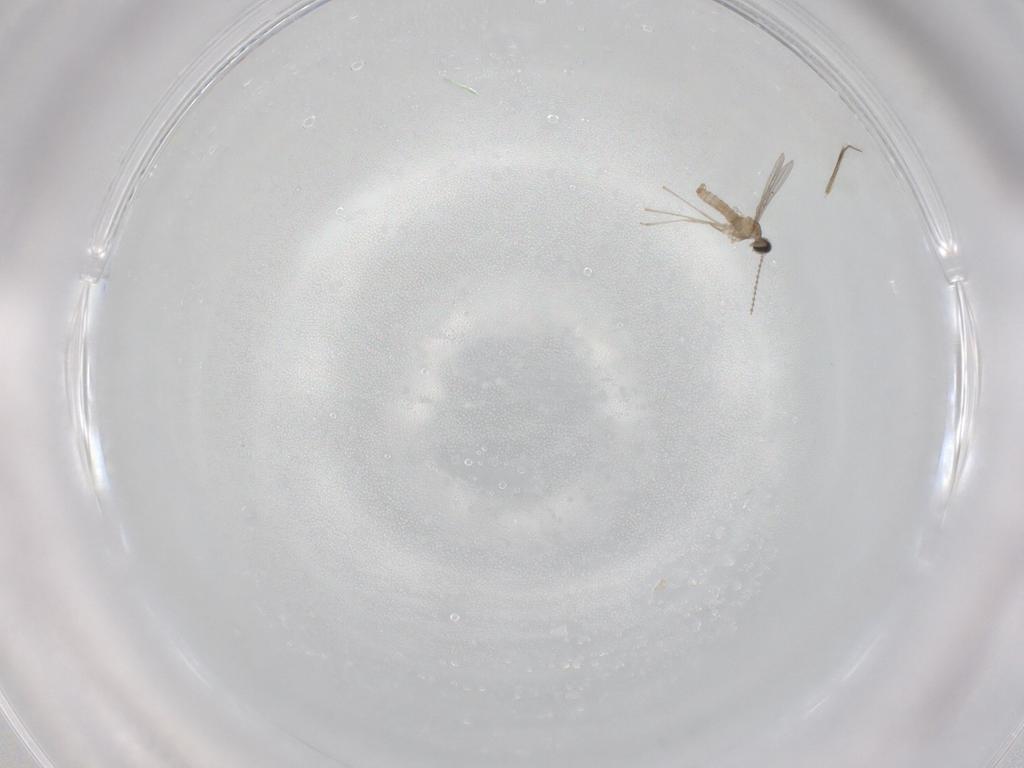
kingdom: Animalia
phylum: Arthropoda
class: Insecta
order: Diptera
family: Cecidomyiidae
